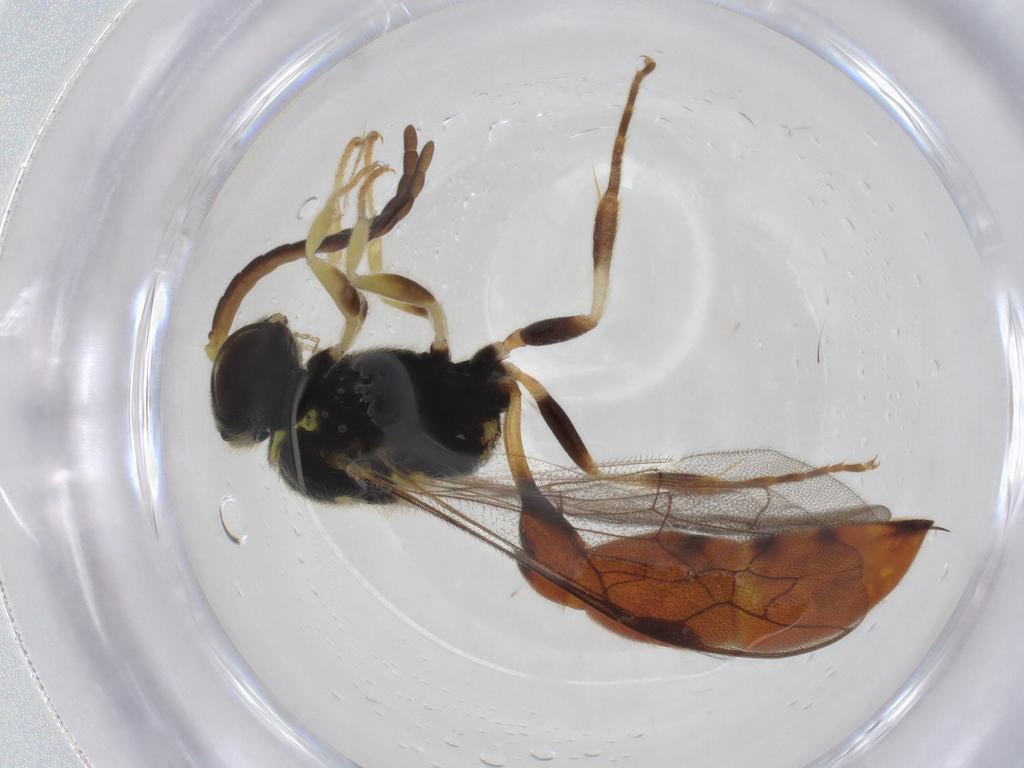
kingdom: Animalia
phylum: Arthropoda
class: Insecta
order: Hymenoptera
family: Crabronidae
